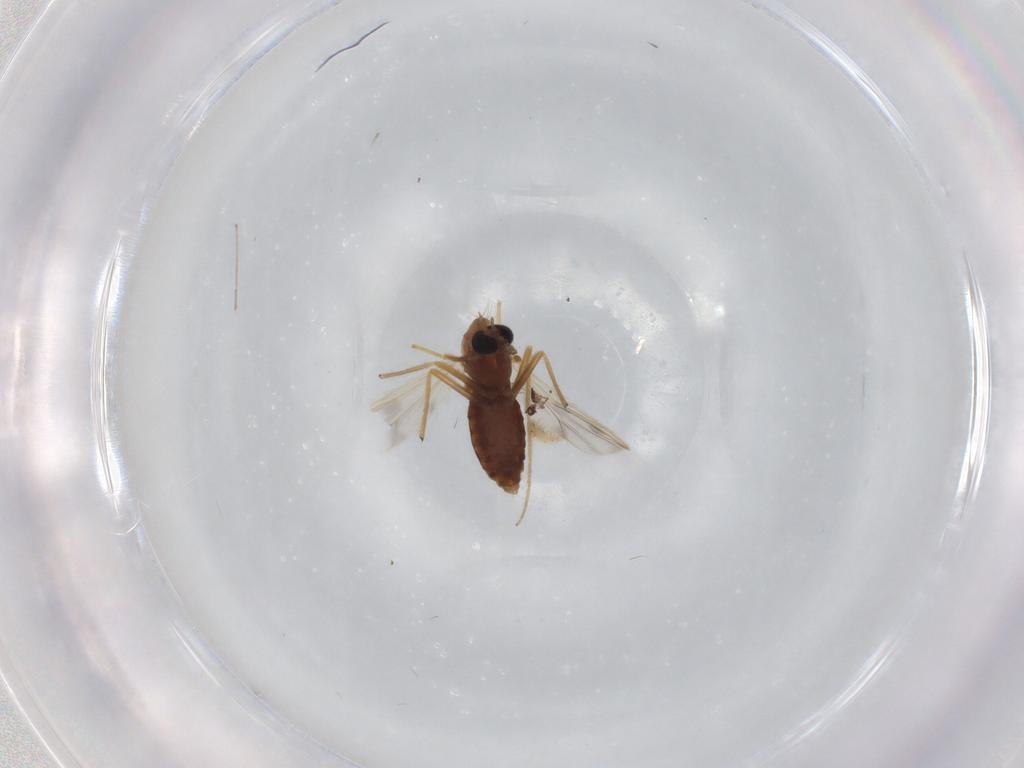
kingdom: Animalia
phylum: Arthropoda
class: Insecta
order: Diptera
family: Chironomidae
